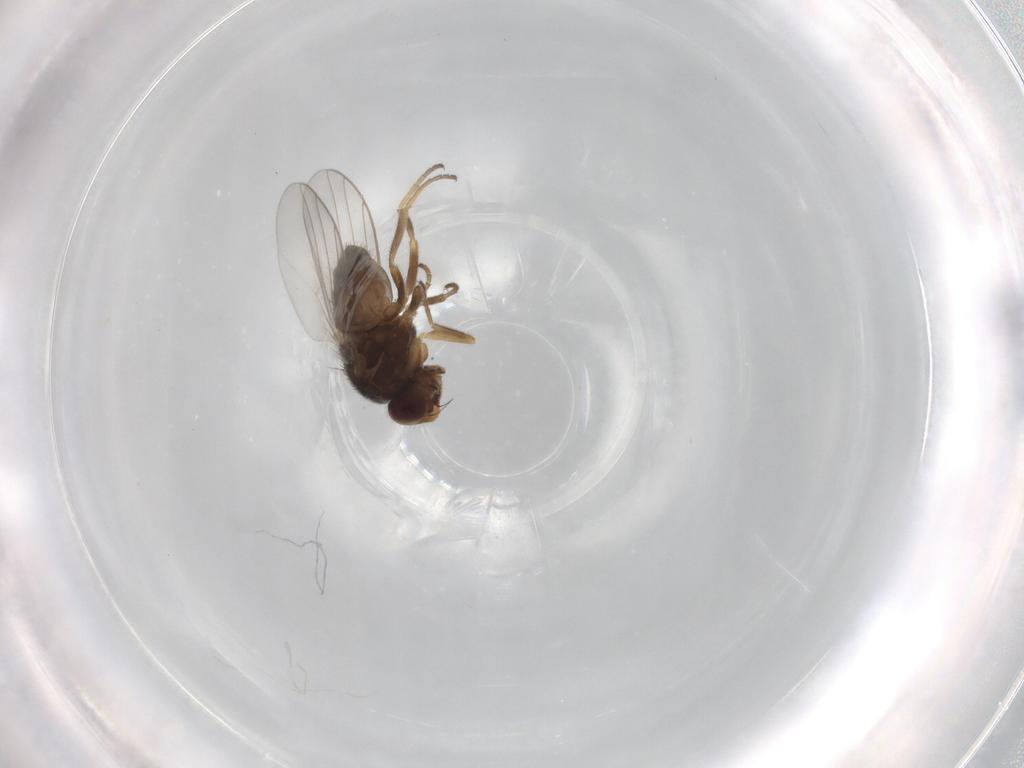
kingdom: Animalia
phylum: Arthropoda
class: Insecta
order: Diptera
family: Chloropidae
